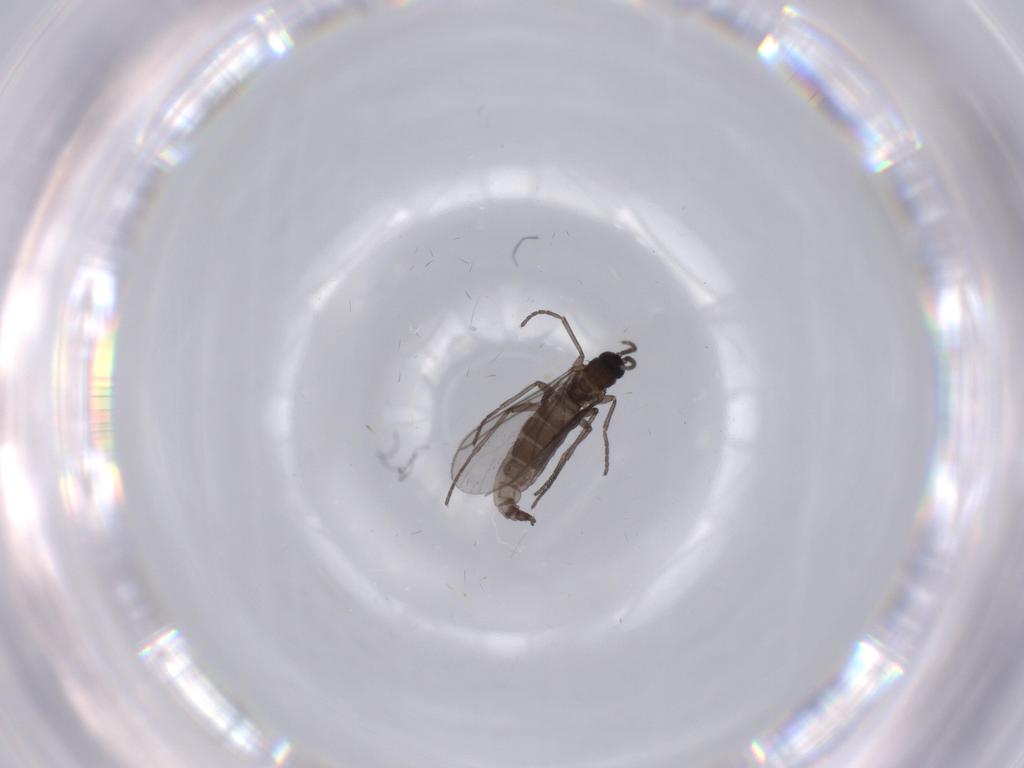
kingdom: Animalia
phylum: Arthropoda
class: Insecta
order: Diptera
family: Cecidomyiidae
